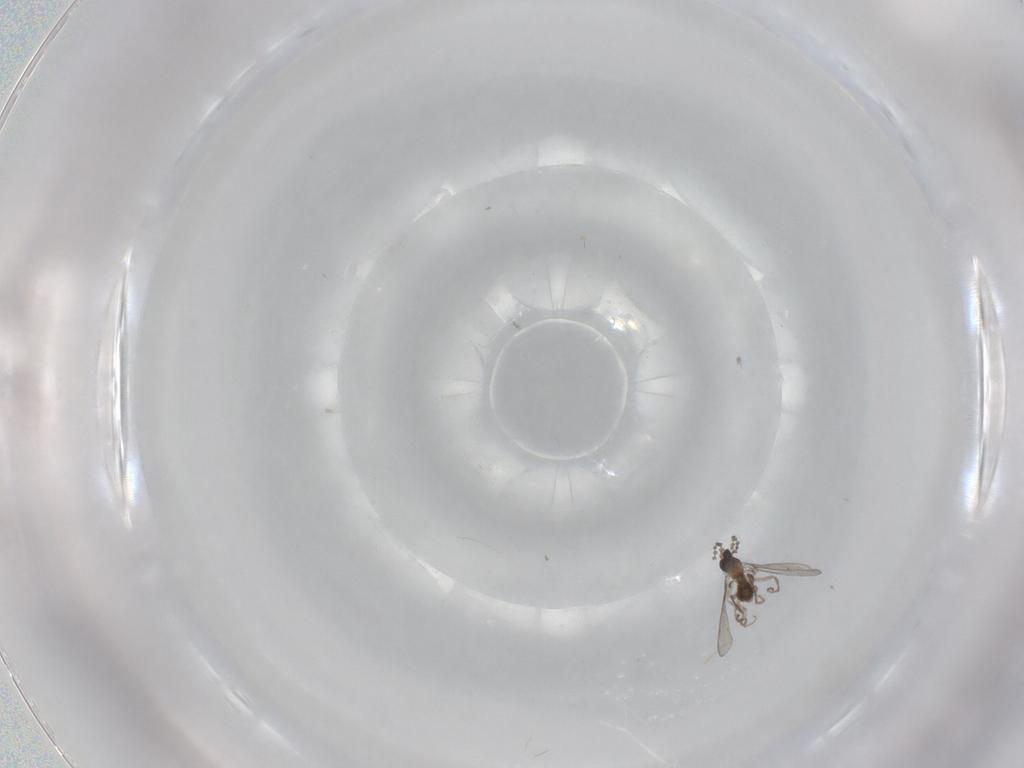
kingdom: Animalia
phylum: Arthropoda
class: Insecta
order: Diptera
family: Cecidomyiidae
